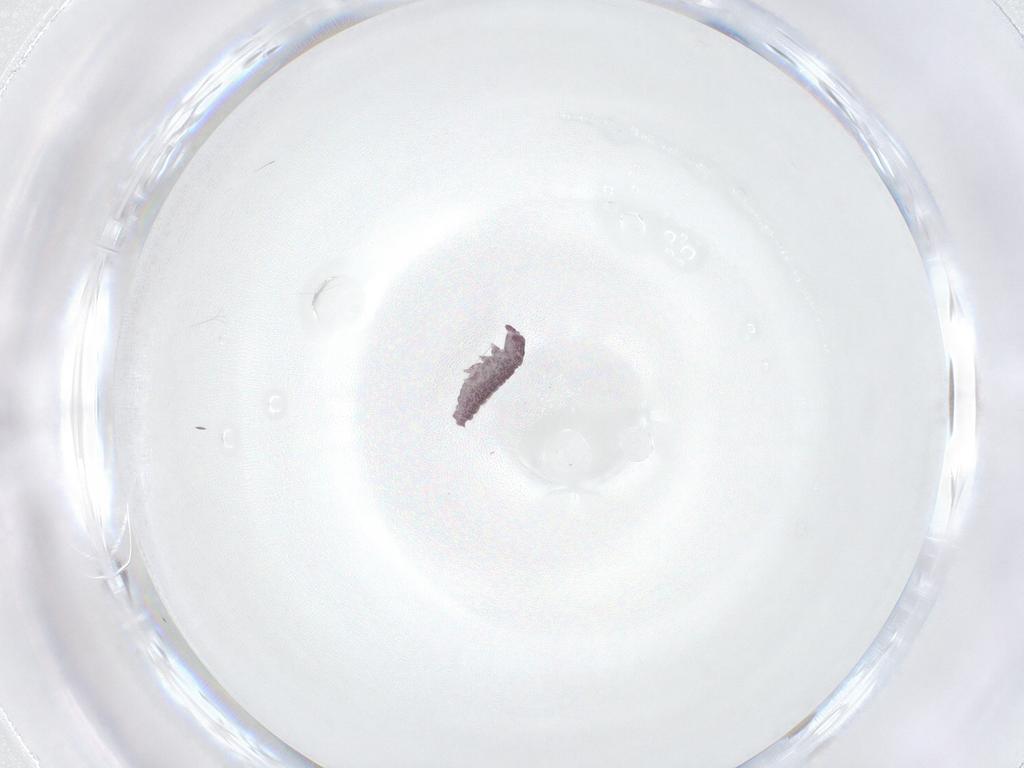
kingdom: Animalia
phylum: Arthropoda
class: Collembola
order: Poduromorpha
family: Hypogastruridae
